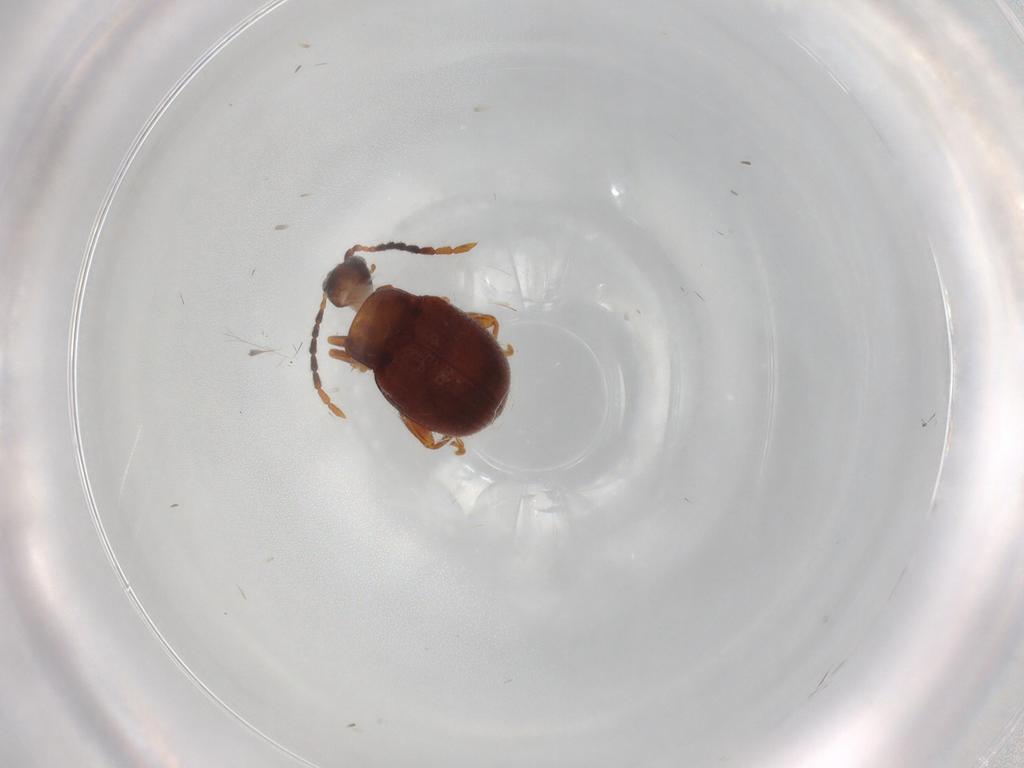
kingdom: Animalia
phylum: Arthropoda
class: Insecta
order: Coleoptera
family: Chrysomelidae
